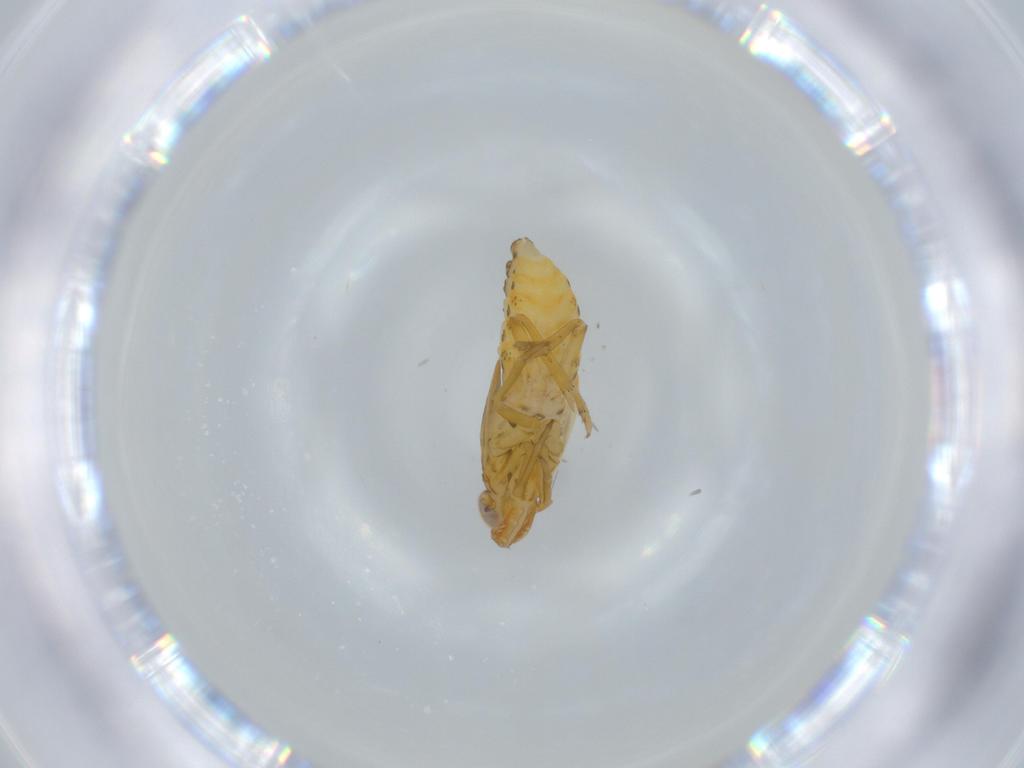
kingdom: Animalia
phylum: Arthropoda
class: Insecta
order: Hemiptera
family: Delphacidae
